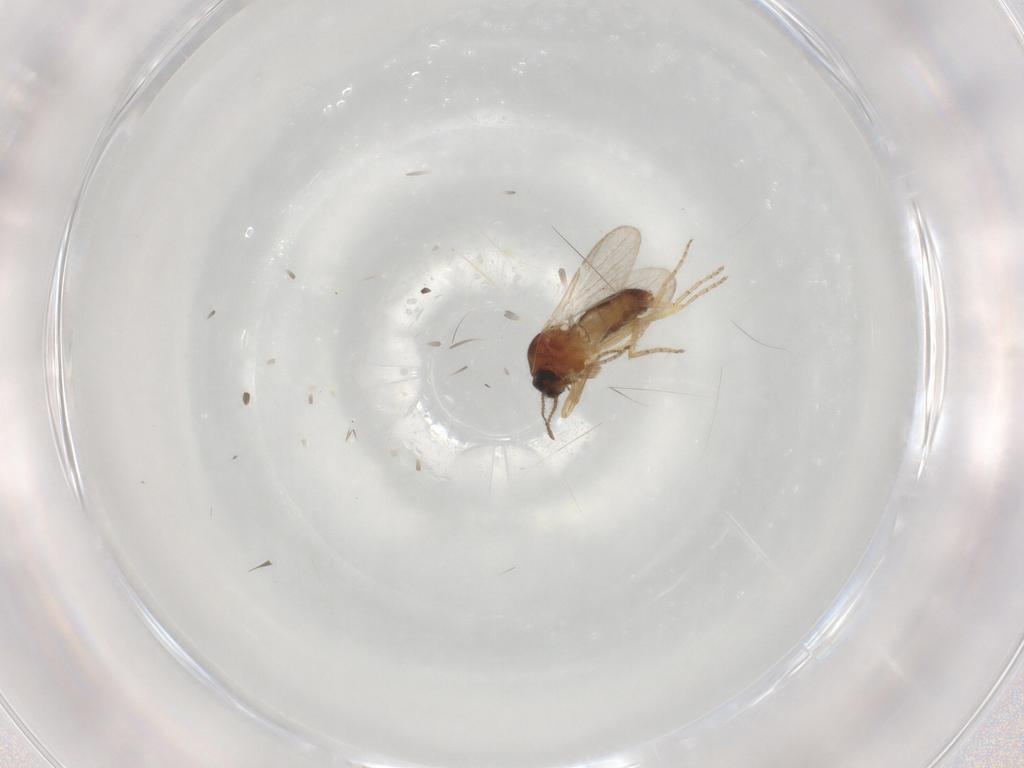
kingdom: Animalia
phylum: Arthropoda
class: Insecta
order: Diptera
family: Ceratopogonidae
